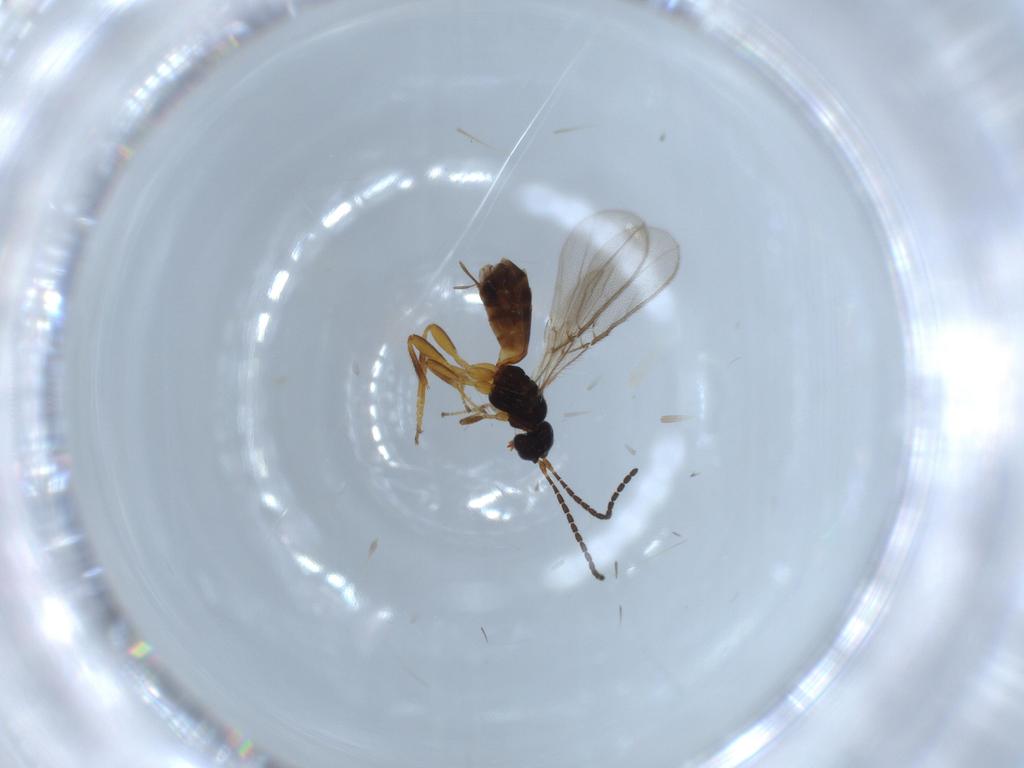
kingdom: Animalia
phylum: Arthropoda
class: Insecta
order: Hymenoptera
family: Braconidae
